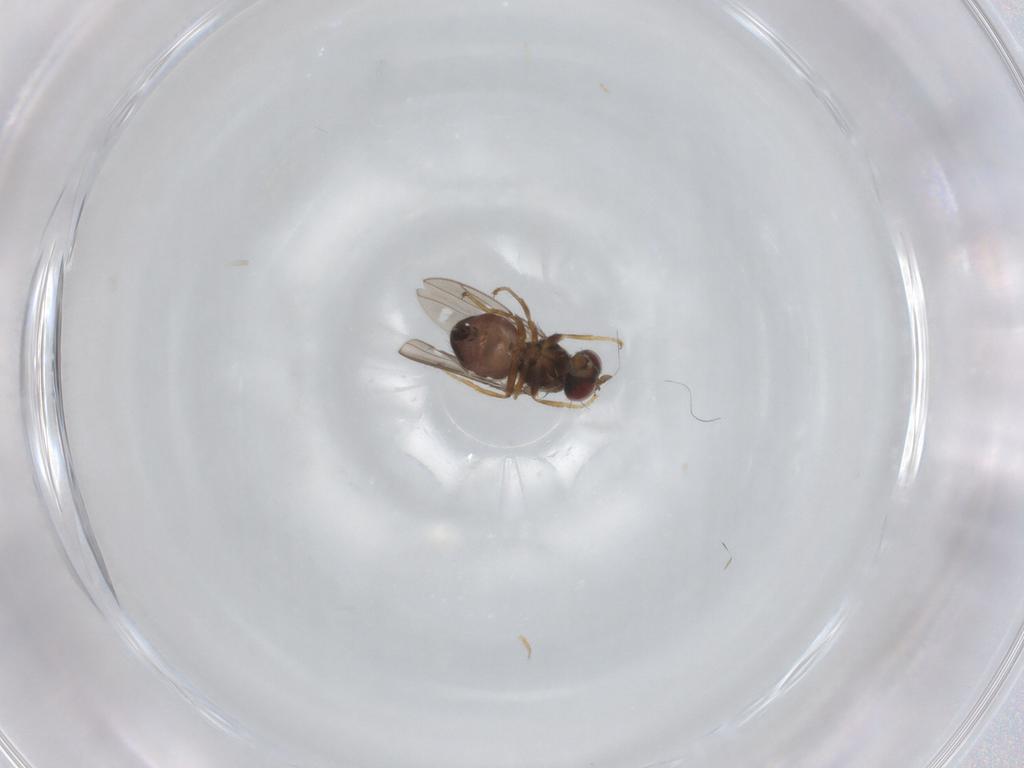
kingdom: Animalia
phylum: Arthropoda
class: Insecta
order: Diptera
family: Ephydridae
